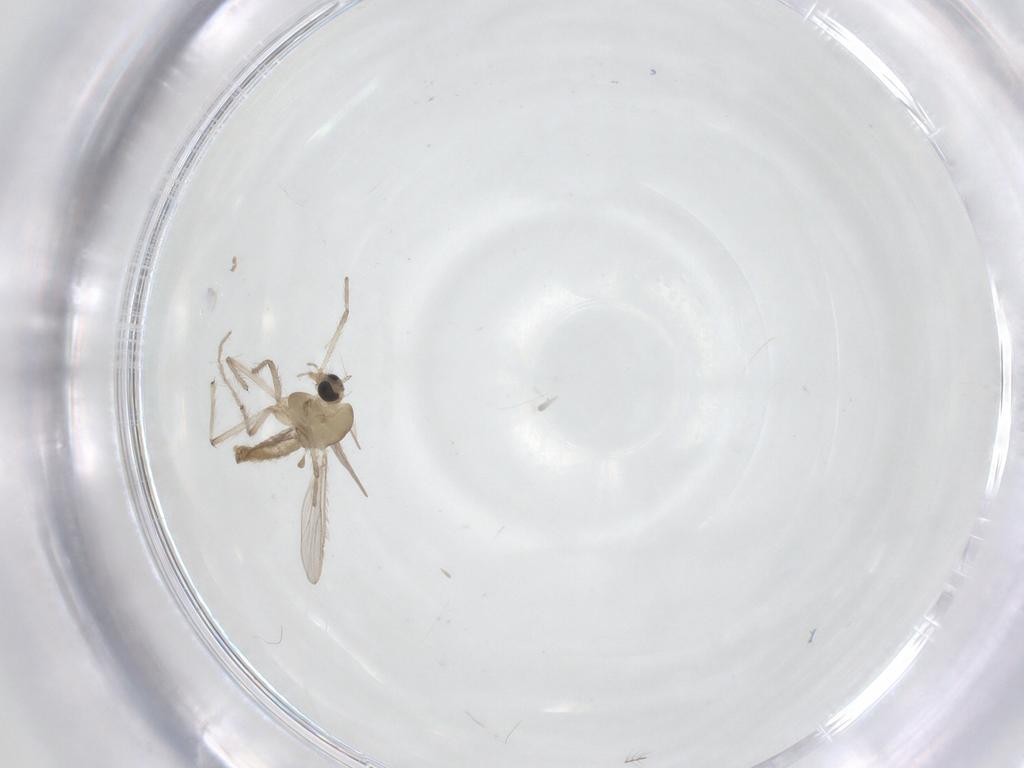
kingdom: Animalia
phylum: Arthropoda
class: Insecta
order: Diptera
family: Chironomidae
